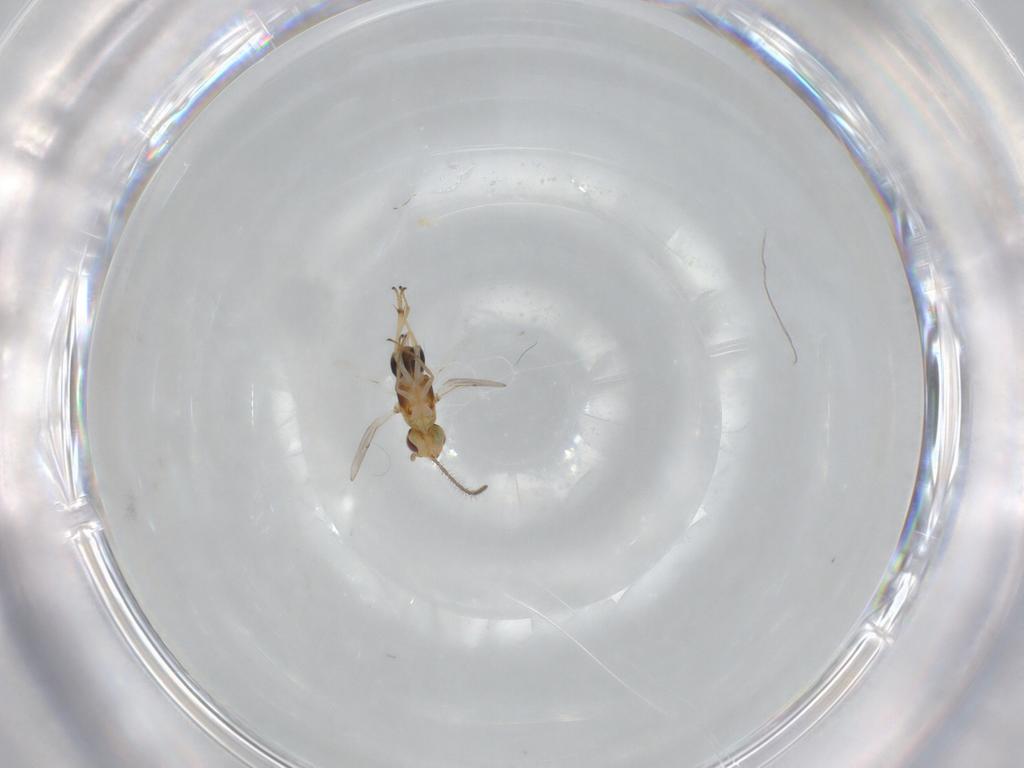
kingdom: Animalia
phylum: Arthropoda
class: Insecta
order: Hymenoptera
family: Encyrtidae
